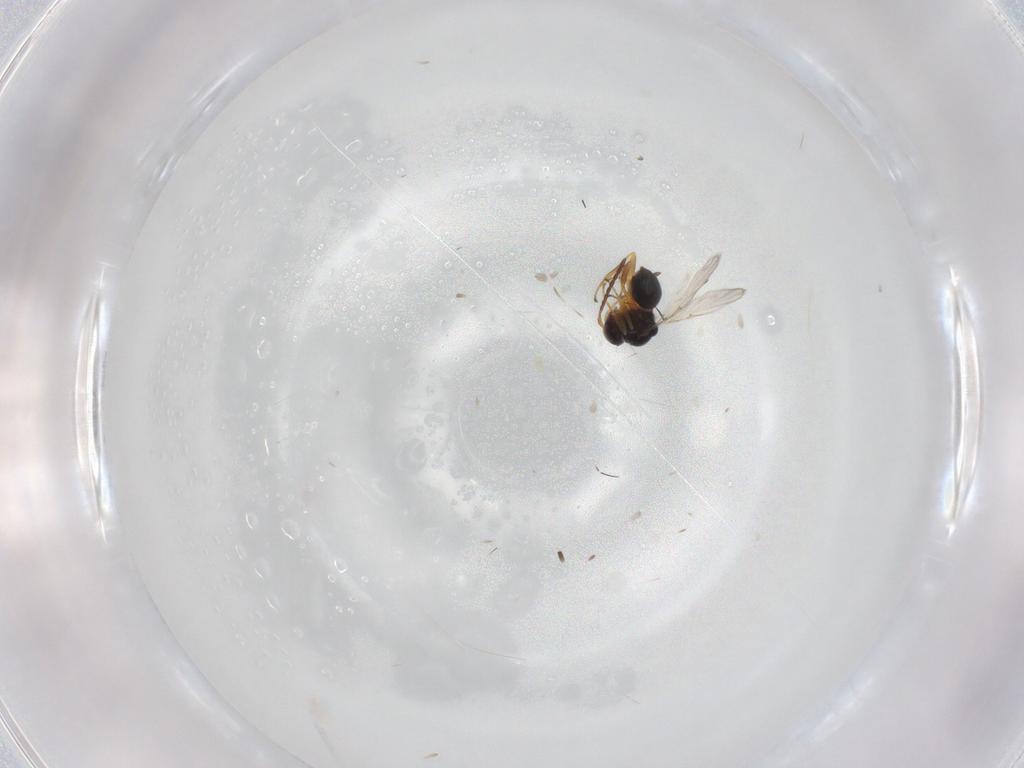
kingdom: Animalia
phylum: Arthropoda
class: Insecta
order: Hymenoptera
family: Figitidae
